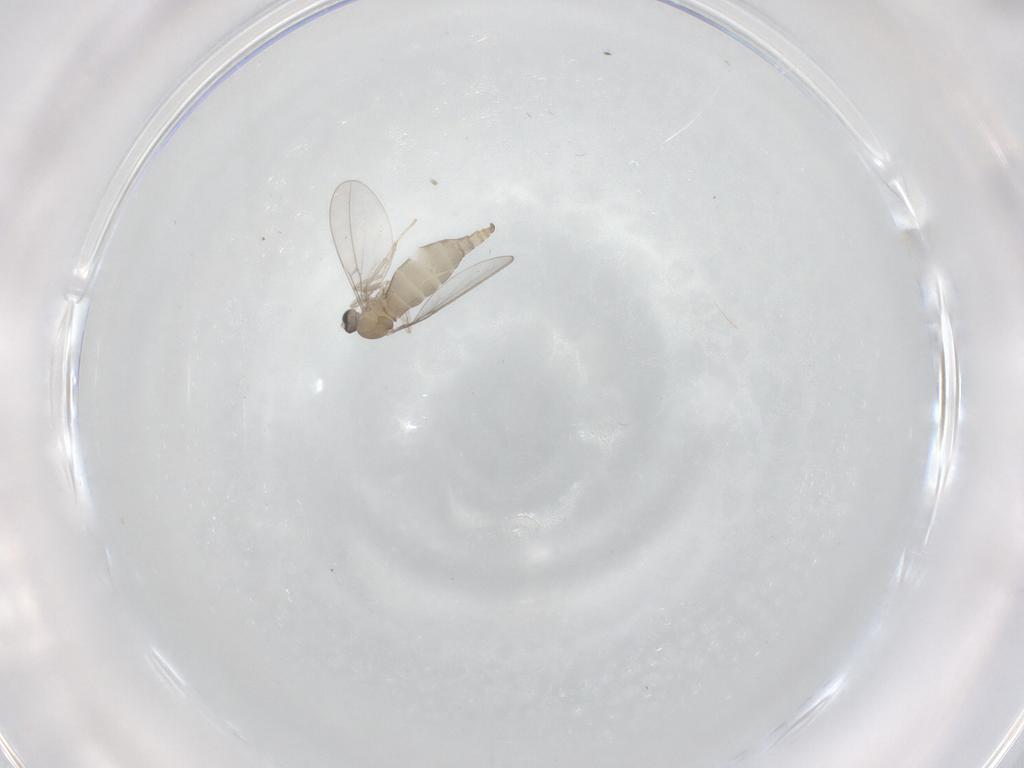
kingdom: Animalia
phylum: Arthropoda
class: Insecta
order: Diptera
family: Cecidomyiidae
